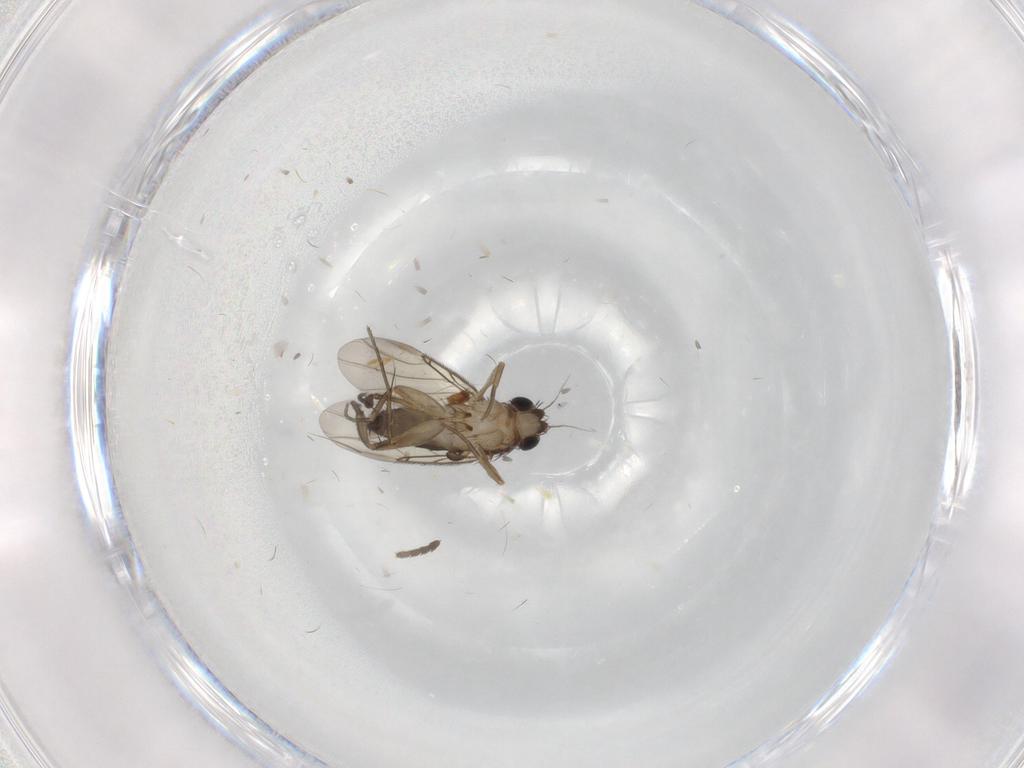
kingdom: Animalia
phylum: Arthropoda
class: Insecta
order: Diptera
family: Phoridae
